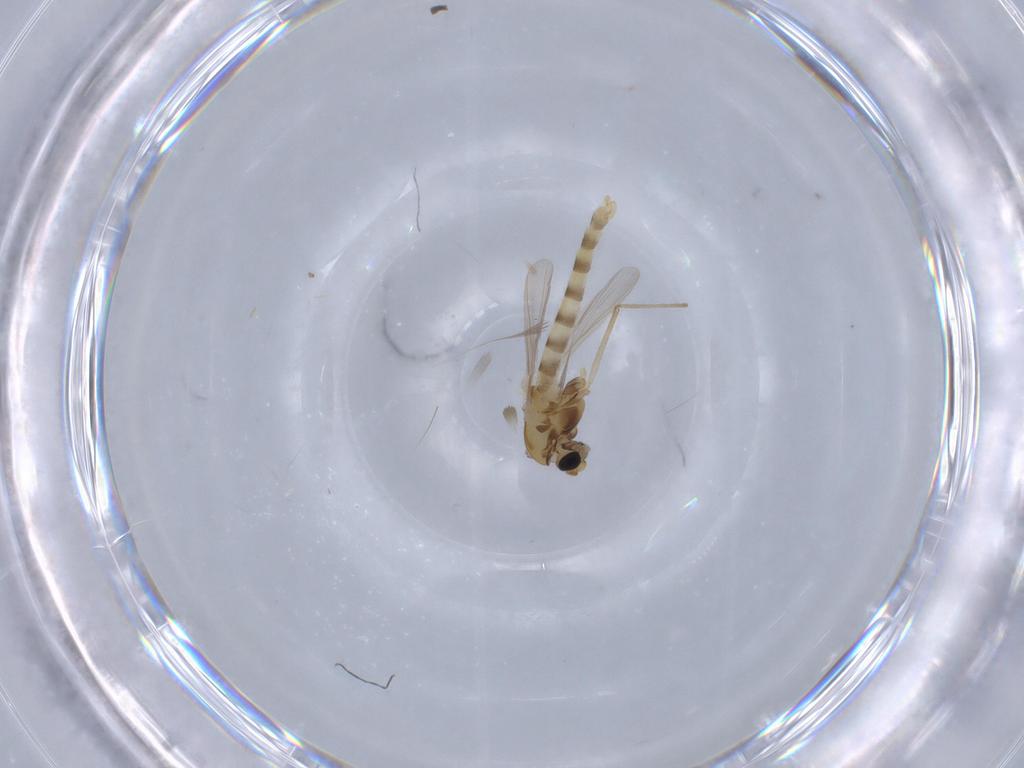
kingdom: Animalia
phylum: Arthropoda
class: Insecta
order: Diptera
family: Chironomidae
